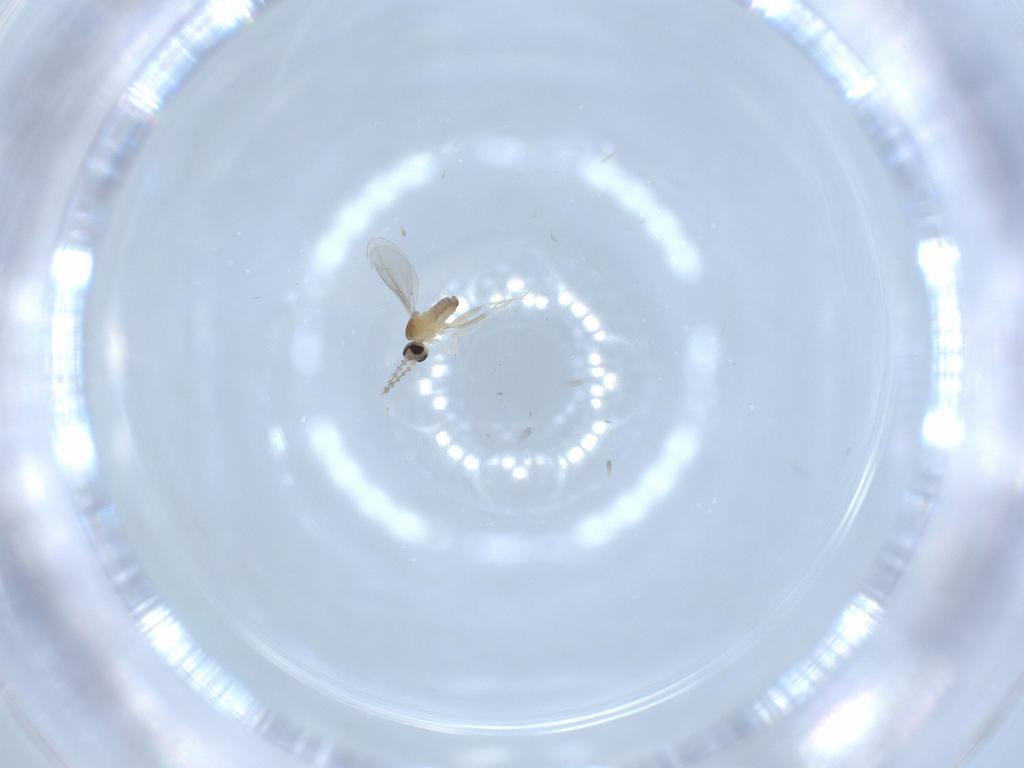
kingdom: Animalia
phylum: Arthropoda
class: Insecta
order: Diptera
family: Cecidomyiidae
